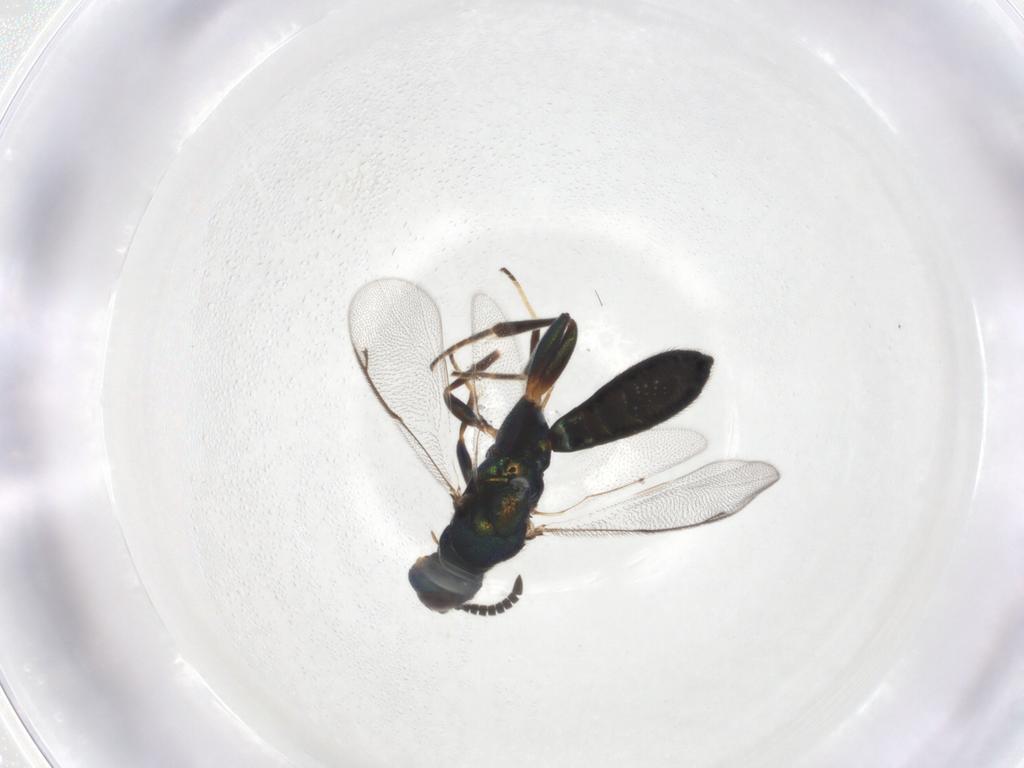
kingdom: Animalia
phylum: Arthropoda
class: Insecta
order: Hymenoptera
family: Cleonyminae
